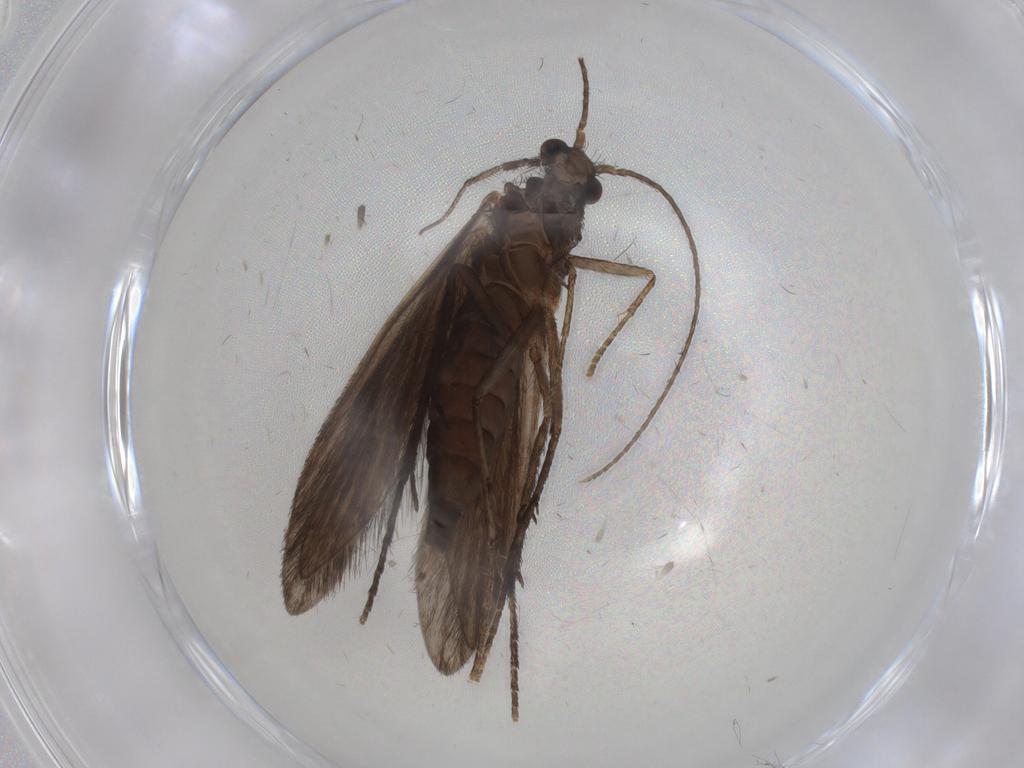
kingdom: Animalia
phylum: Arthropoda
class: Insecta
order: Trichoptera
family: Xiphocentronidae
